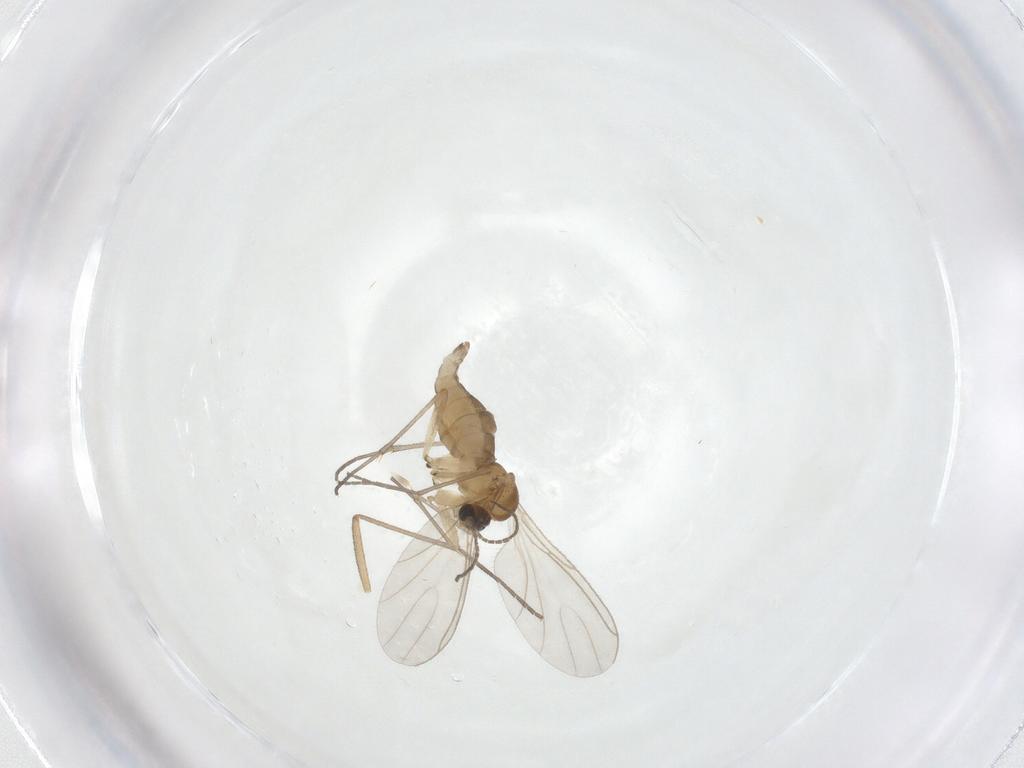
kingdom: Animalia
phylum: Arthropoda
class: Insecta
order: Diptera
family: Sciaridae
